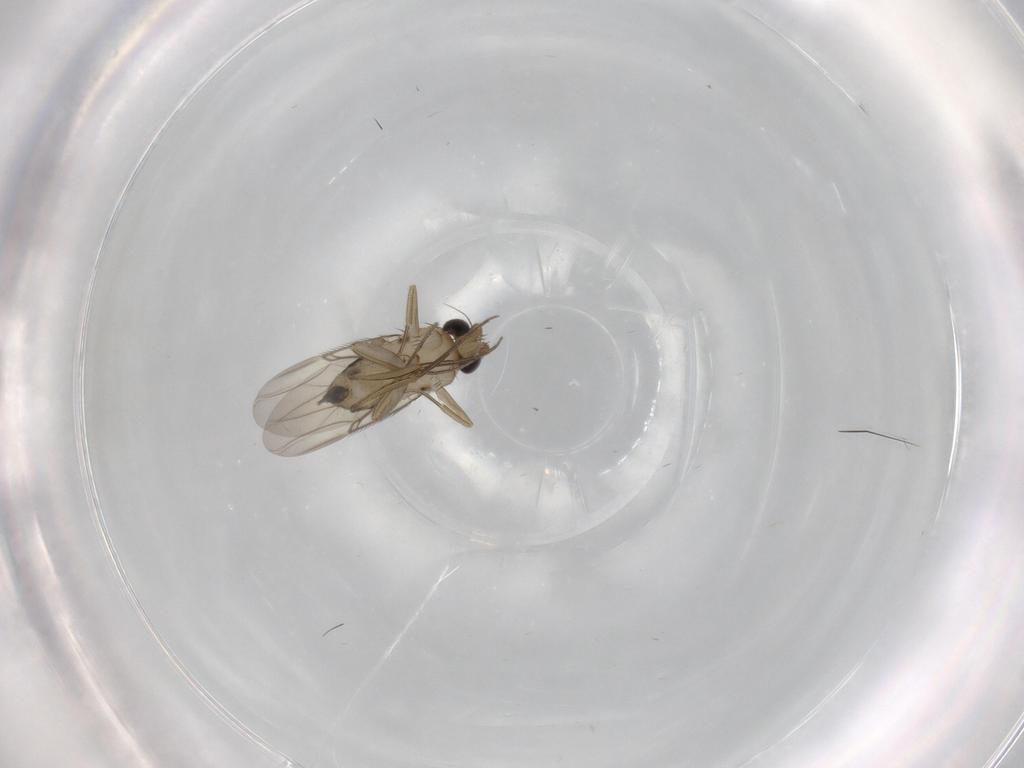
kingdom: Animalia
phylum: Arthropoda
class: Insecta
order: Diptera
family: Phoridae
